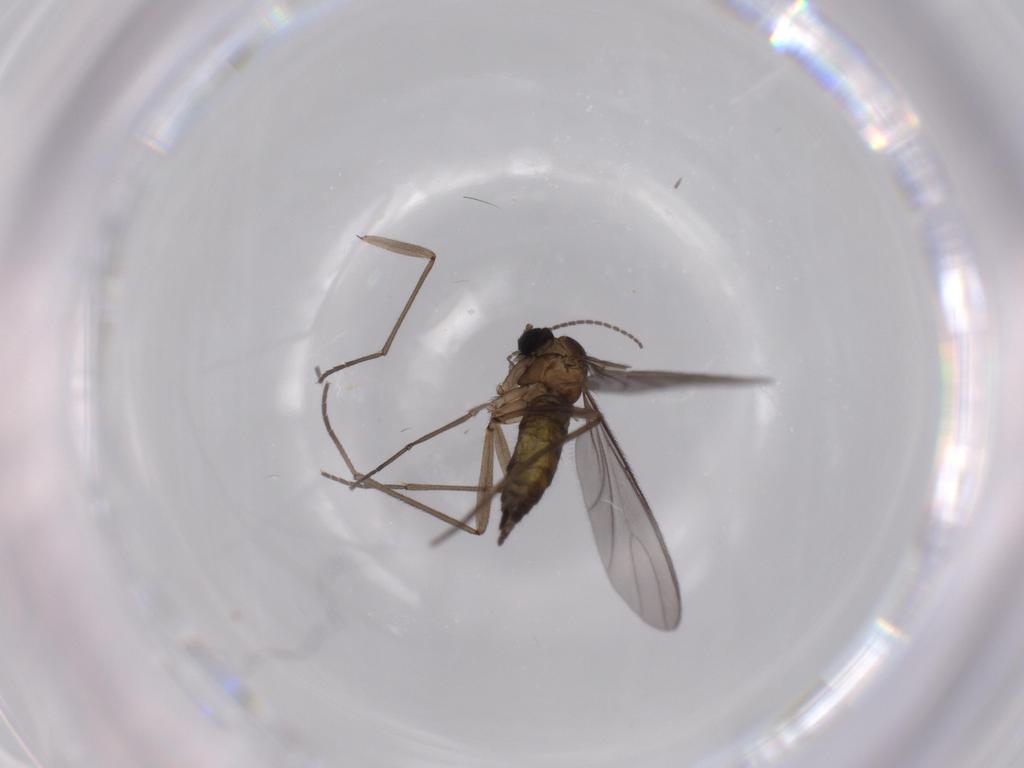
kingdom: Animalia
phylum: Arthropoda
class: Insecta
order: Diptera
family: Sciaridae
